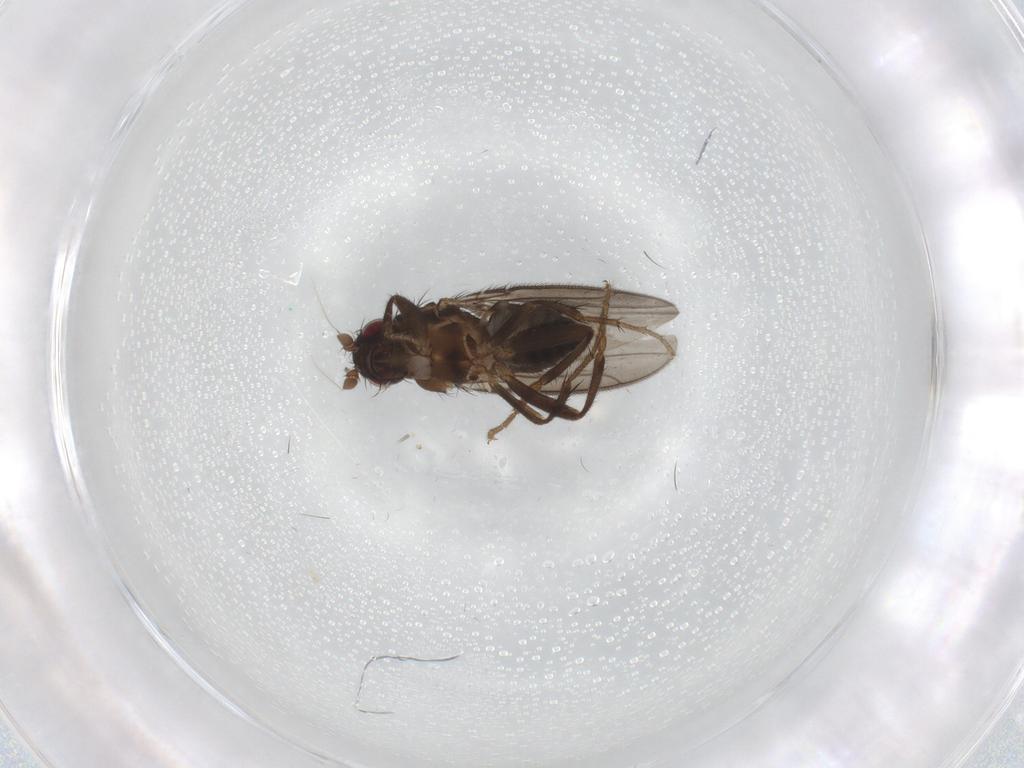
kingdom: Animalia
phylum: Arthropoda
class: Insecta
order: Diptera
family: Sphaeroceridae
